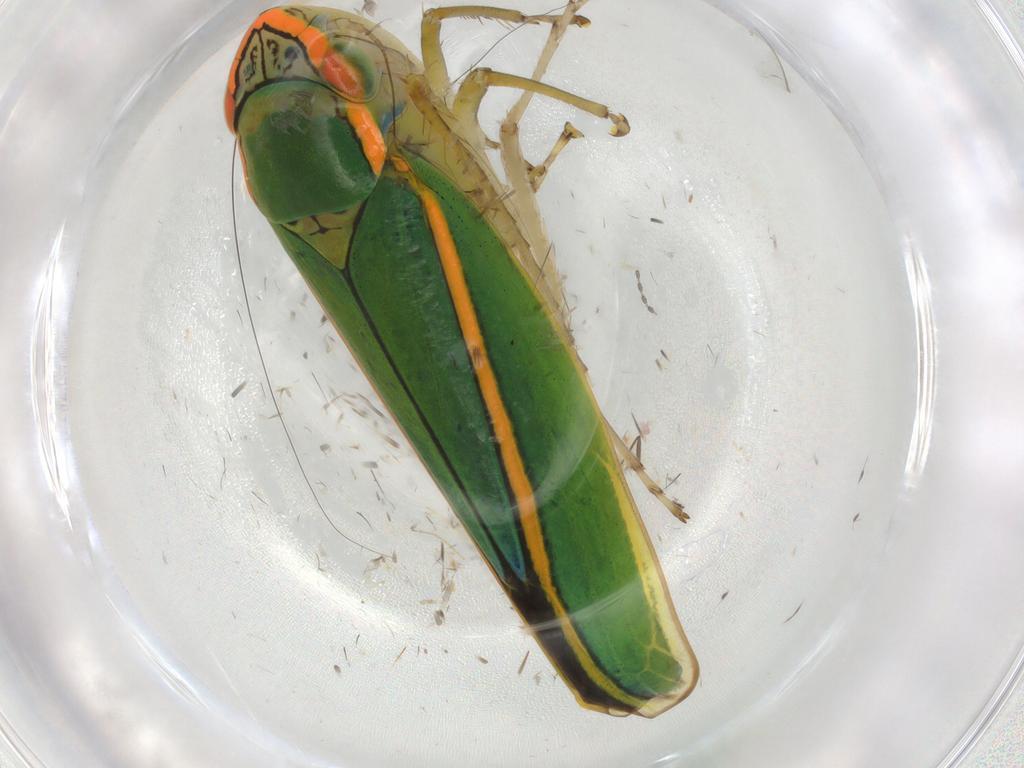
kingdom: Animalia
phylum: Arthropoda
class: Insecta
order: Hemiptera
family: Cicadellidae
